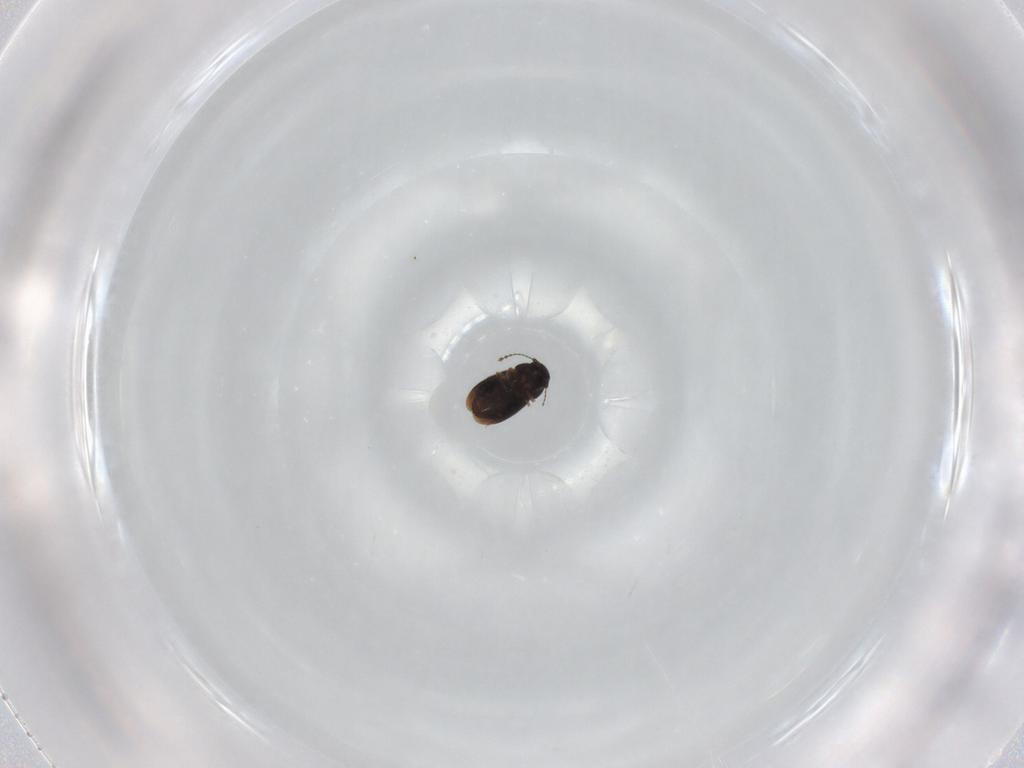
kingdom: Animalia
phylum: Arthropoda
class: Insecta
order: Coleoptera
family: Ptiliidae
